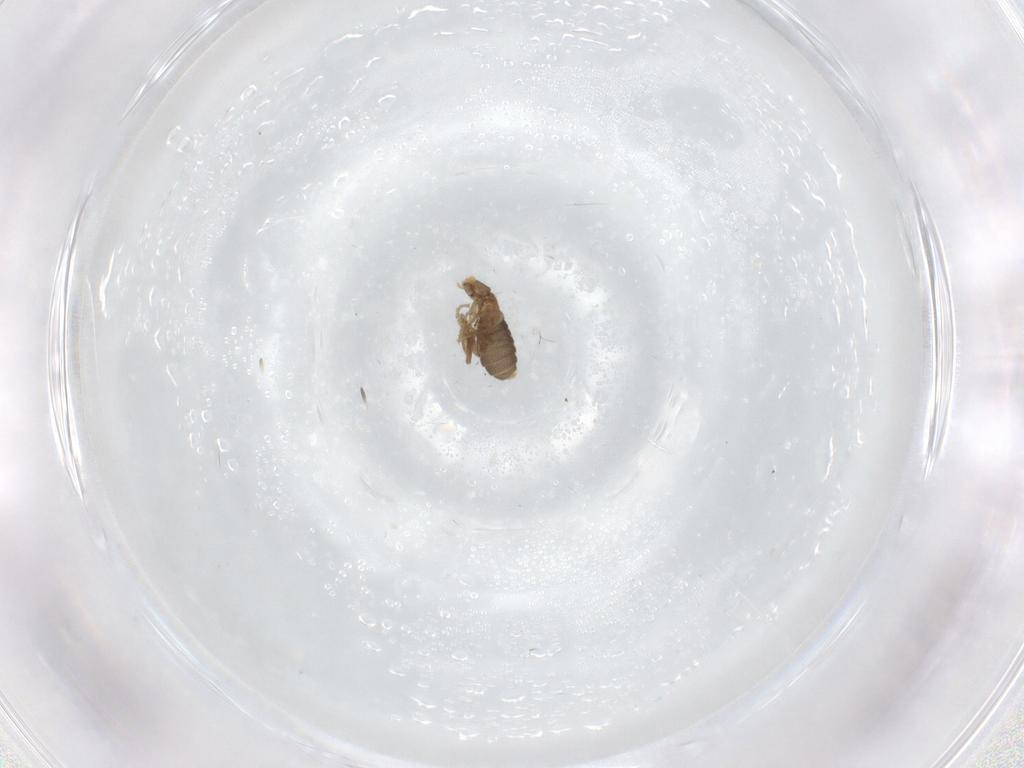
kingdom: Animalia
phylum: Arthropoda
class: Insecta
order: Diptera
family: Phoridae
